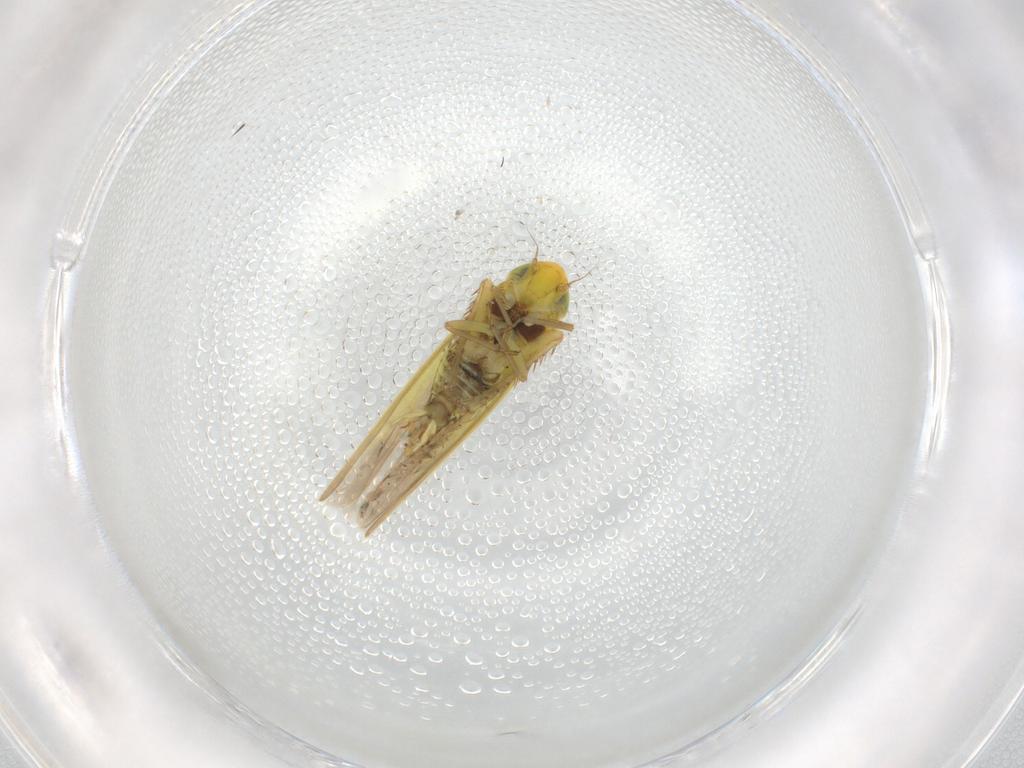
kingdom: Animalia
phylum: Arthropoda
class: Insecta
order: Hemiptera
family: Cicadellidae
